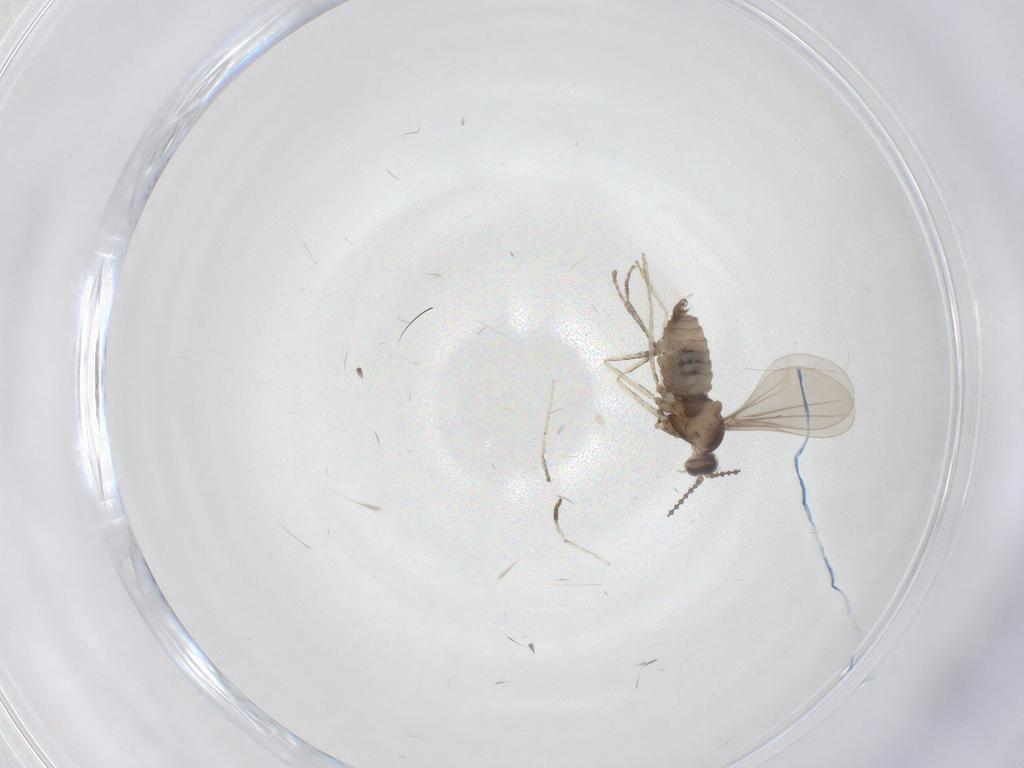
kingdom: Animalia
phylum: Arthropoda
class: Insecta
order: Diptera
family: Cecidomyiidae
